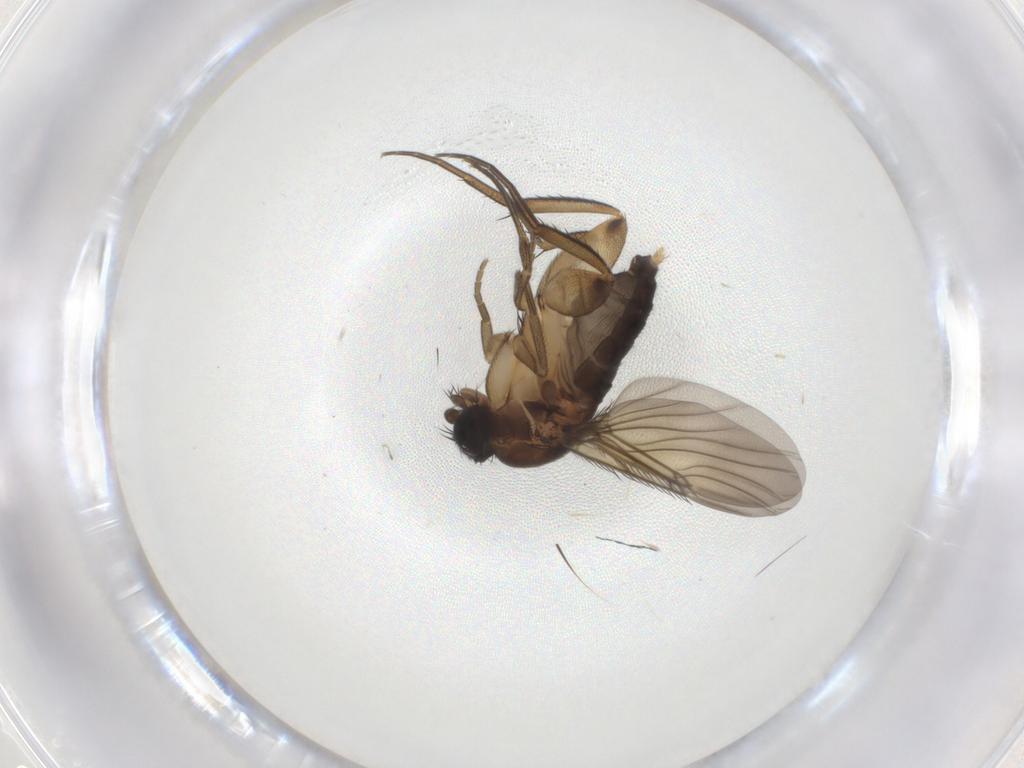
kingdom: Animalia
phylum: Arthropoda
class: Insecta
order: Diptera
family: Phoridae
